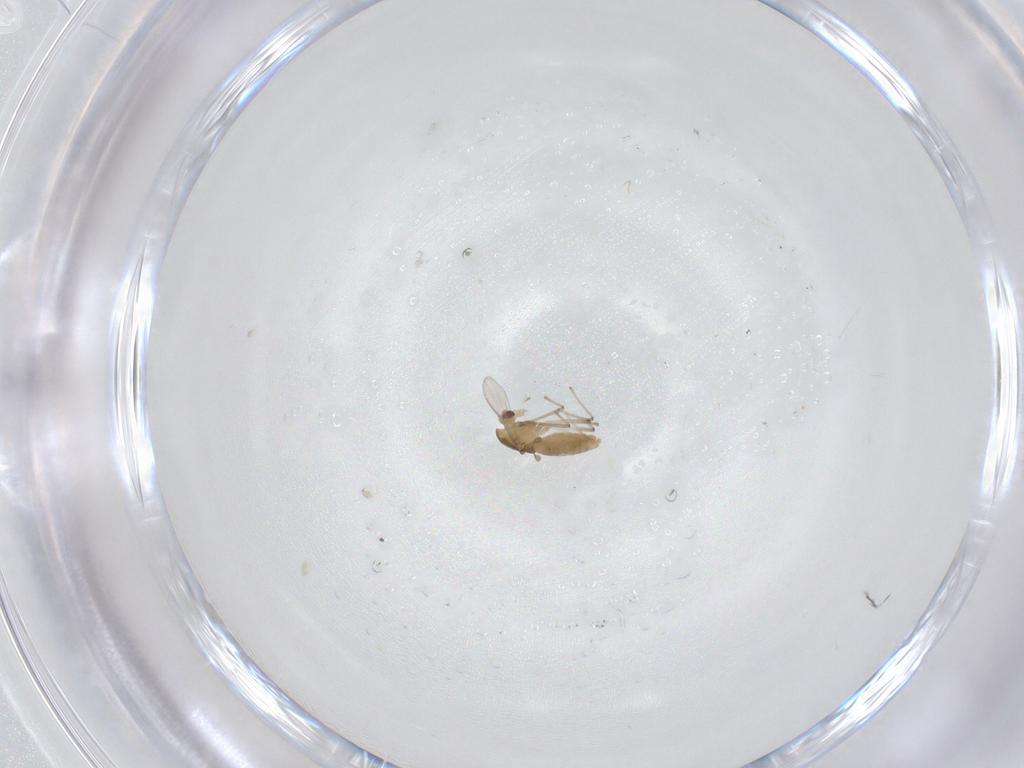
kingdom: Animalia
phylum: Arthropoda
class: Insecta
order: Diptera
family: Chironomidae
